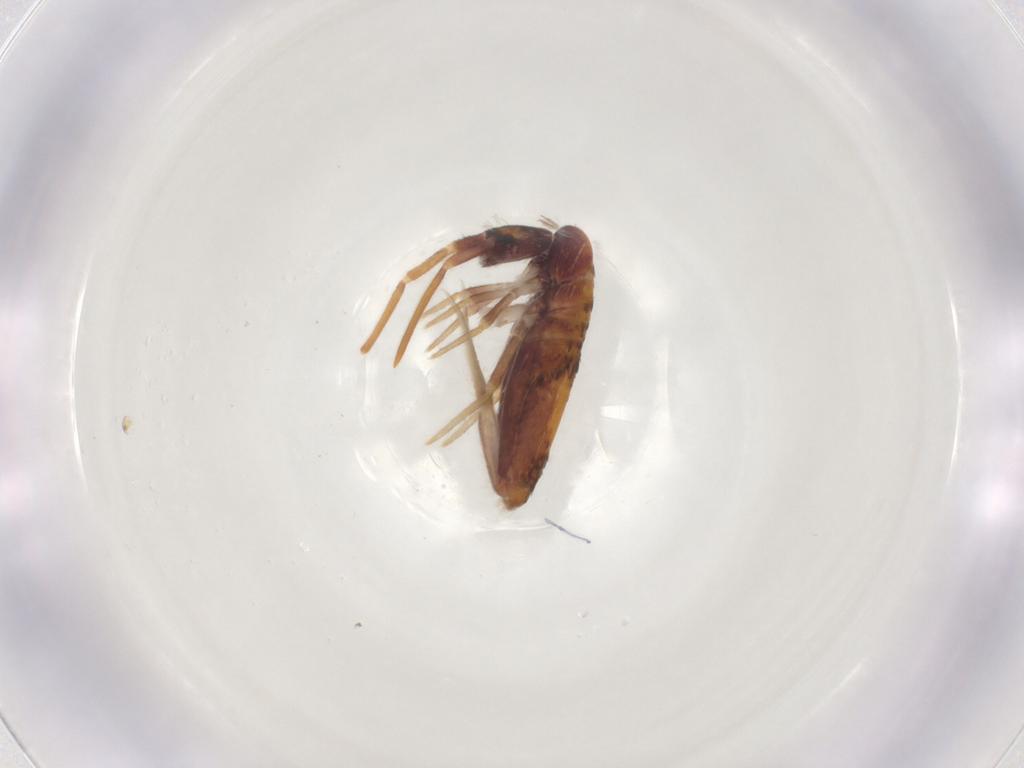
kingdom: Animalia
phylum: Arthropoda
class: Collembola
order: Entomobryomorpha
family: Entomobryidae
